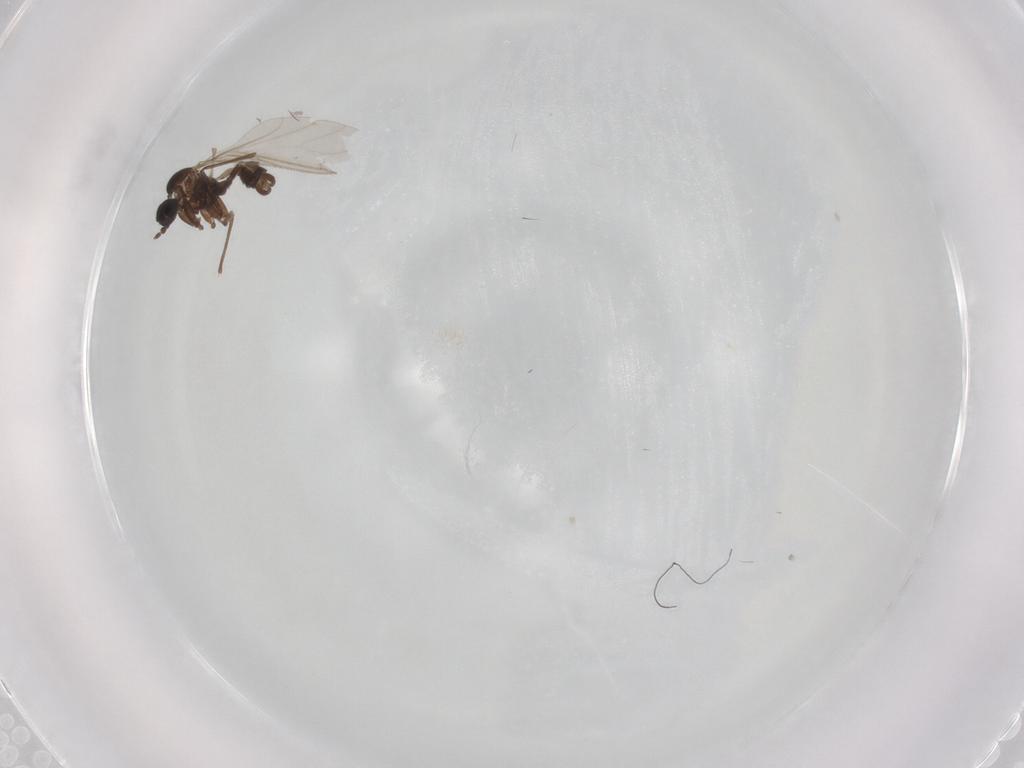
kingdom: Animalia
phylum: Arthropoda
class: Insecta
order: Diptera
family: Sciaridae
